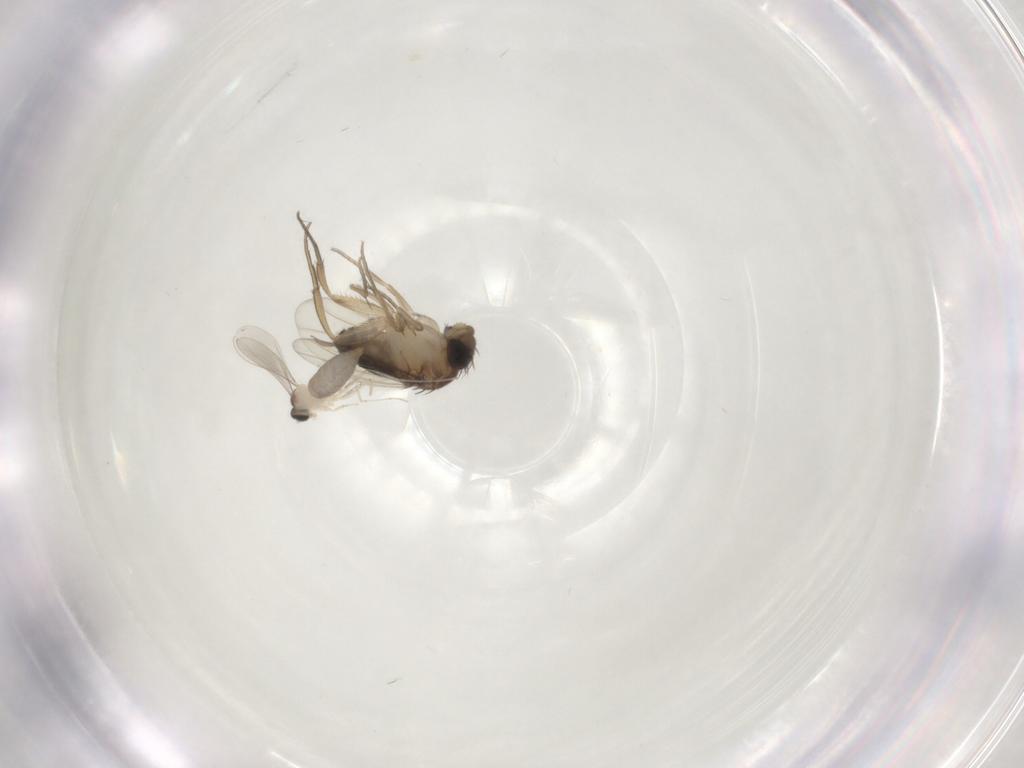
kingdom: Animalia
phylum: Arthropoda
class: Insecta
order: Diptera
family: Phoridae
